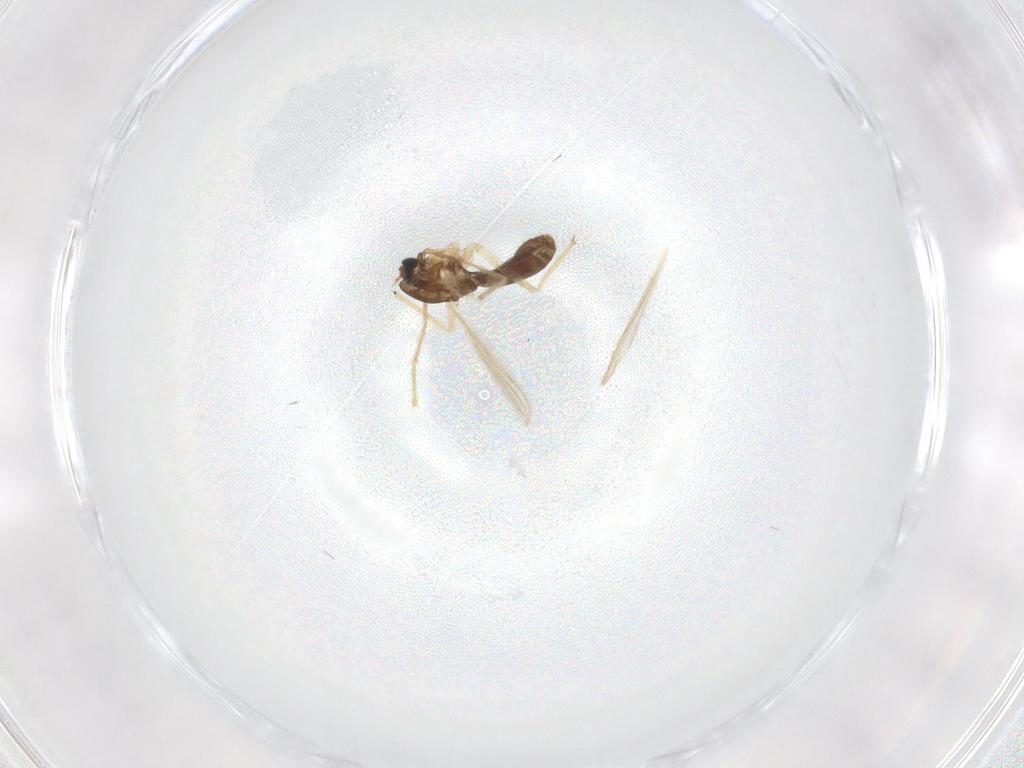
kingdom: Animalia
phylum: Arthropoda
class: Insecta
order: Diptera
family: Chironomidae
